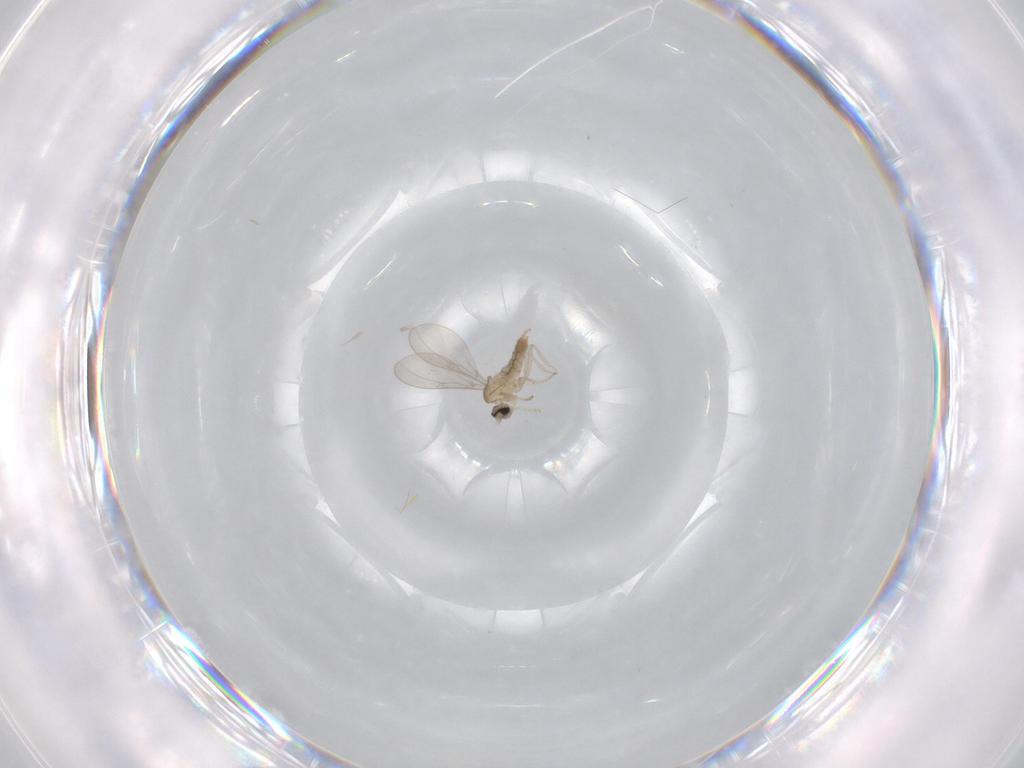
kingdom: Animalia
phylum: Arthropoda
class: Insecta
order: Diptera
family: Cecidomyiidae
